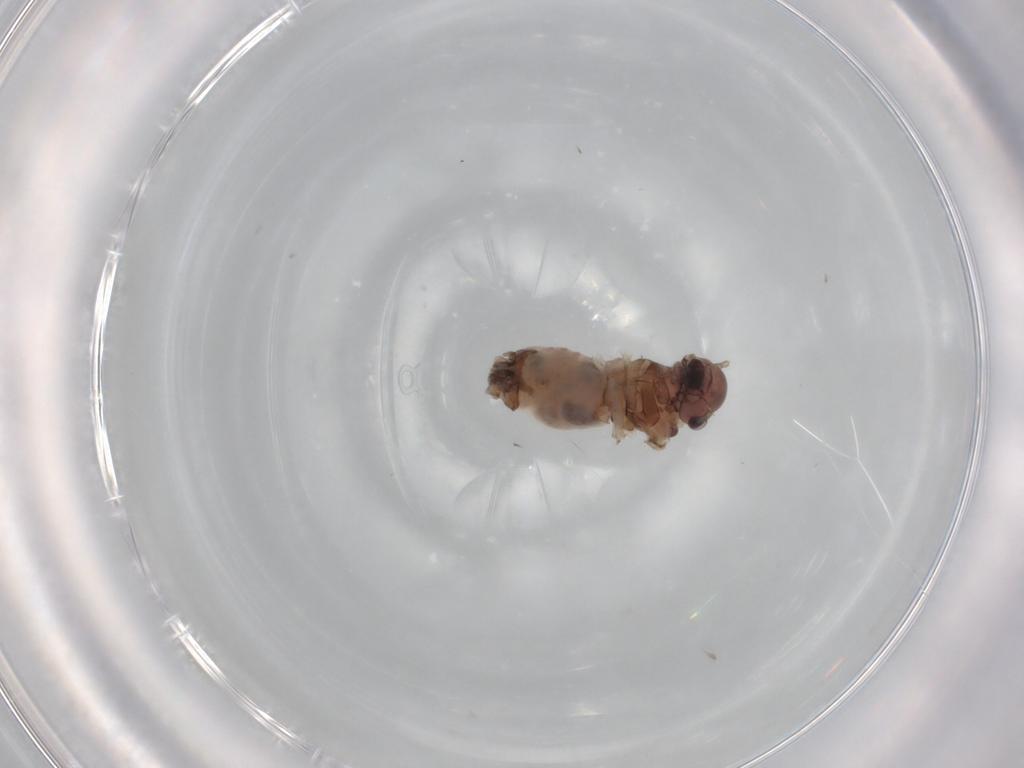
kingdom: Animalia
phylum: Arthropoda
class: Insecta
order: Psocodea
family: Peripsocidae
